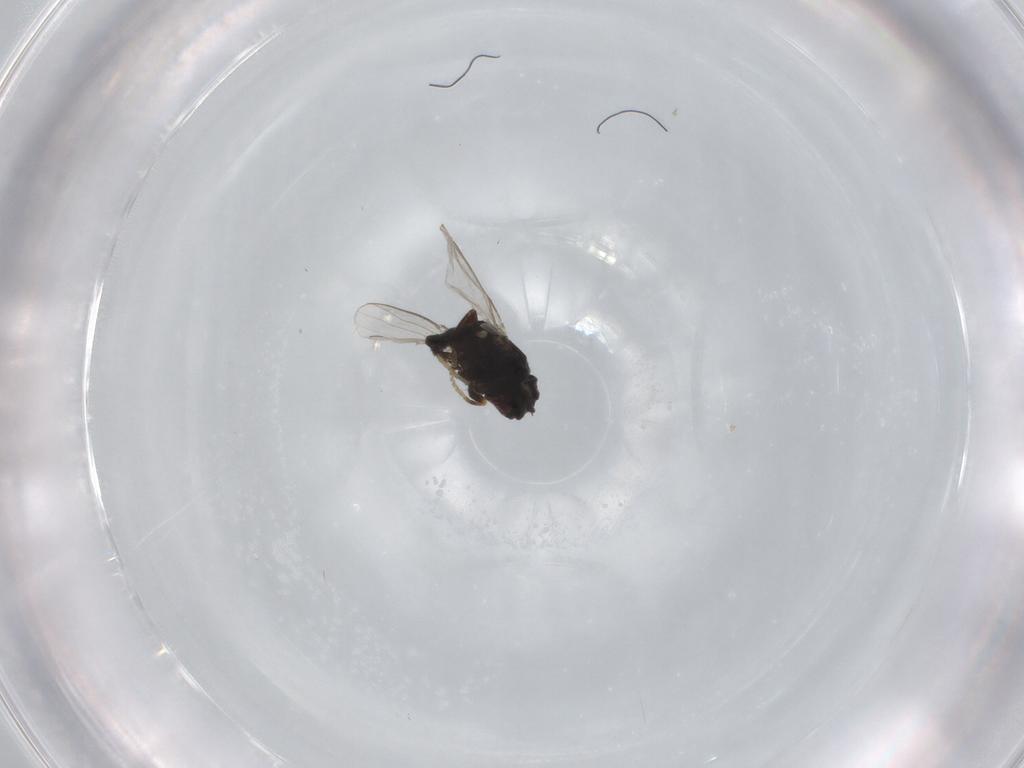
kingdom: Animalia
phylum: Arthropoda
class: Insecta
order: Diptera
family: Milichiidae
